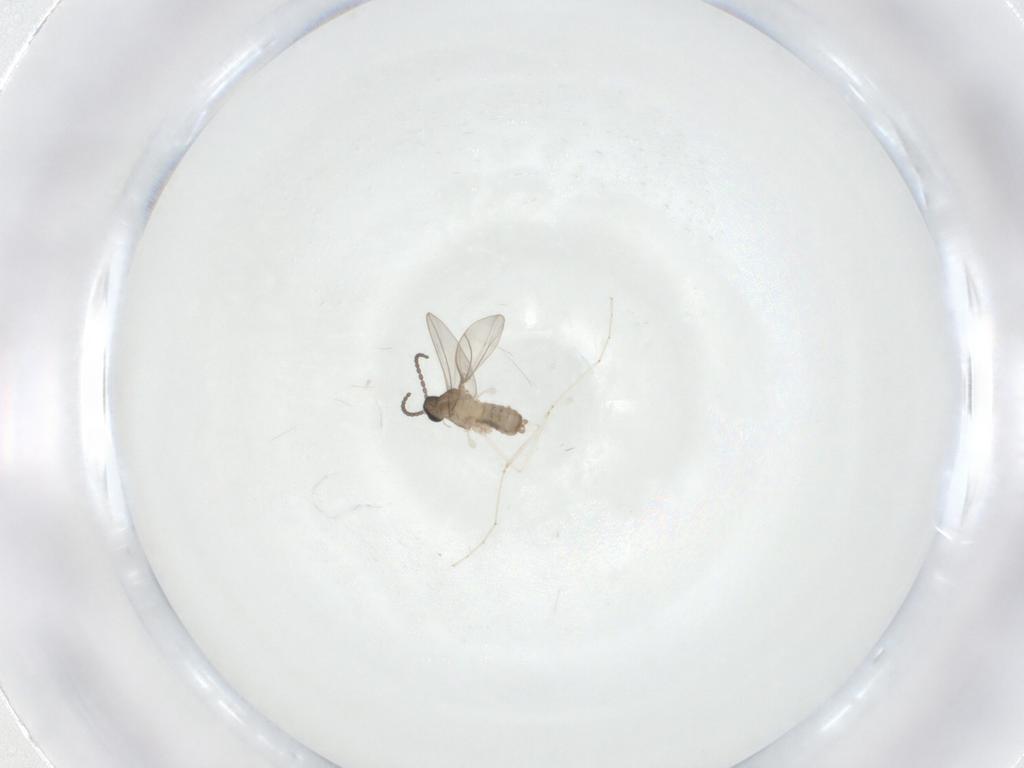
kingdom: Animalia
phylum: Arthropoda
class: Insecta
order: Diptera
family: Cecidomyiidae
